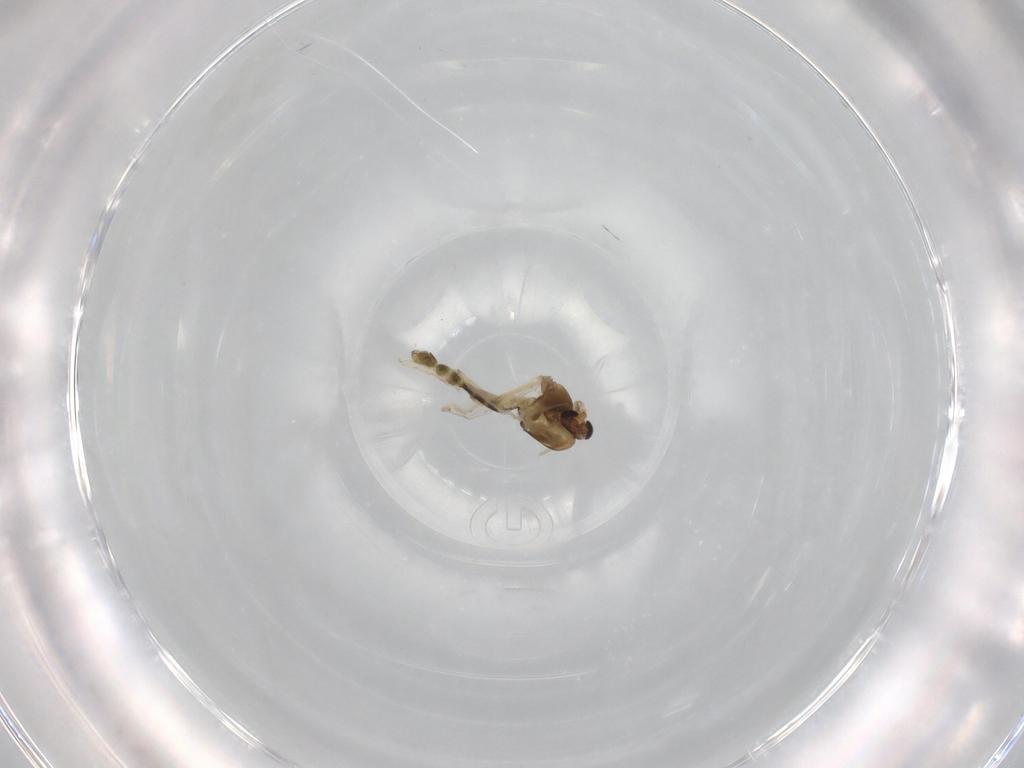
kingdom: Animalia
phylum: Arthropoda
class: Insecta
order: Diptera
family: Chironomidae
